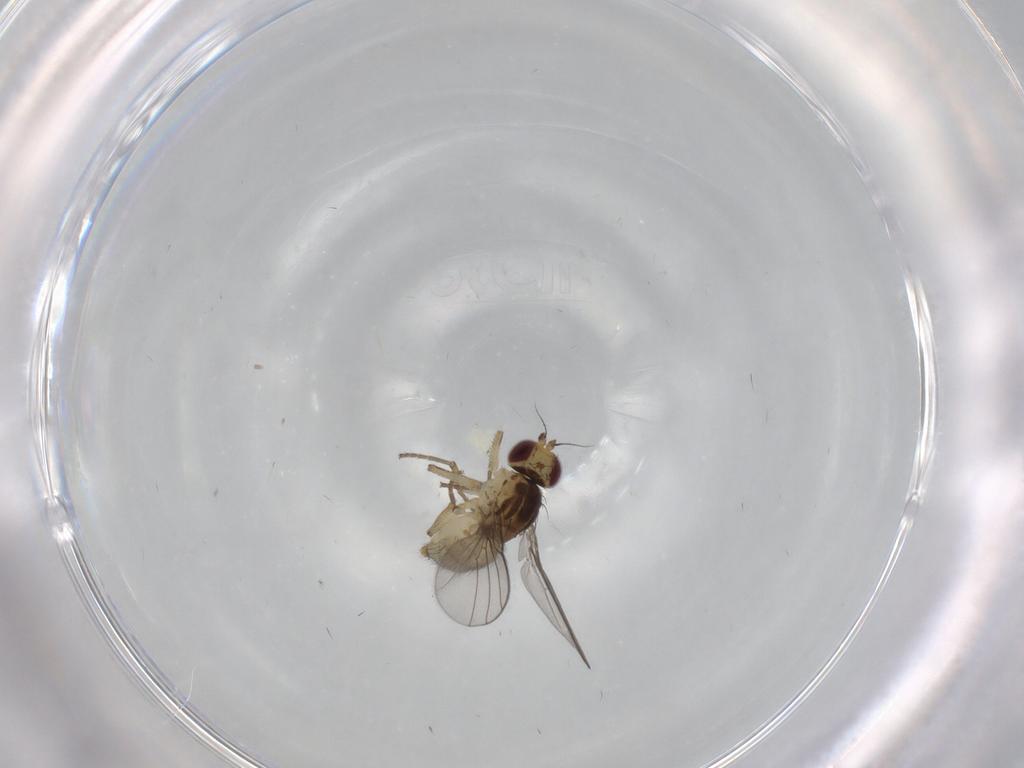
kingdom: Animalia
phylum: Arthropoda
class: Insecta
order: Diptera
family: Agromyzidae
